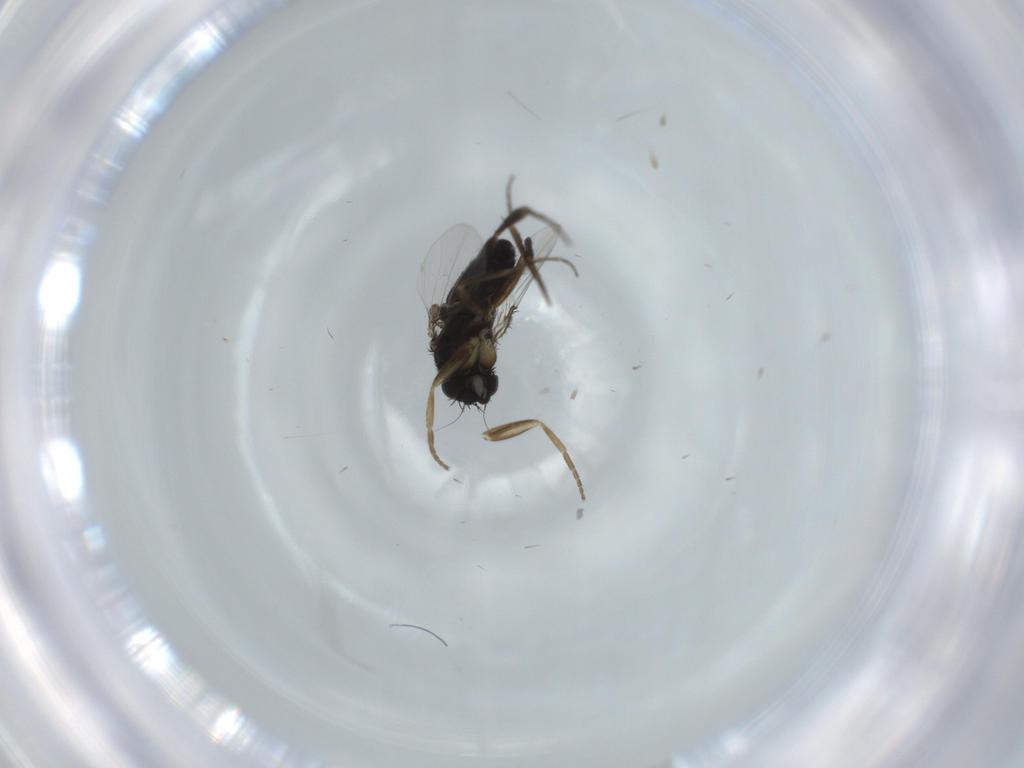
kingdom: Animalia
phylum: Arthropoda
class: Insecta
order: Diptera
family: Phoridae
